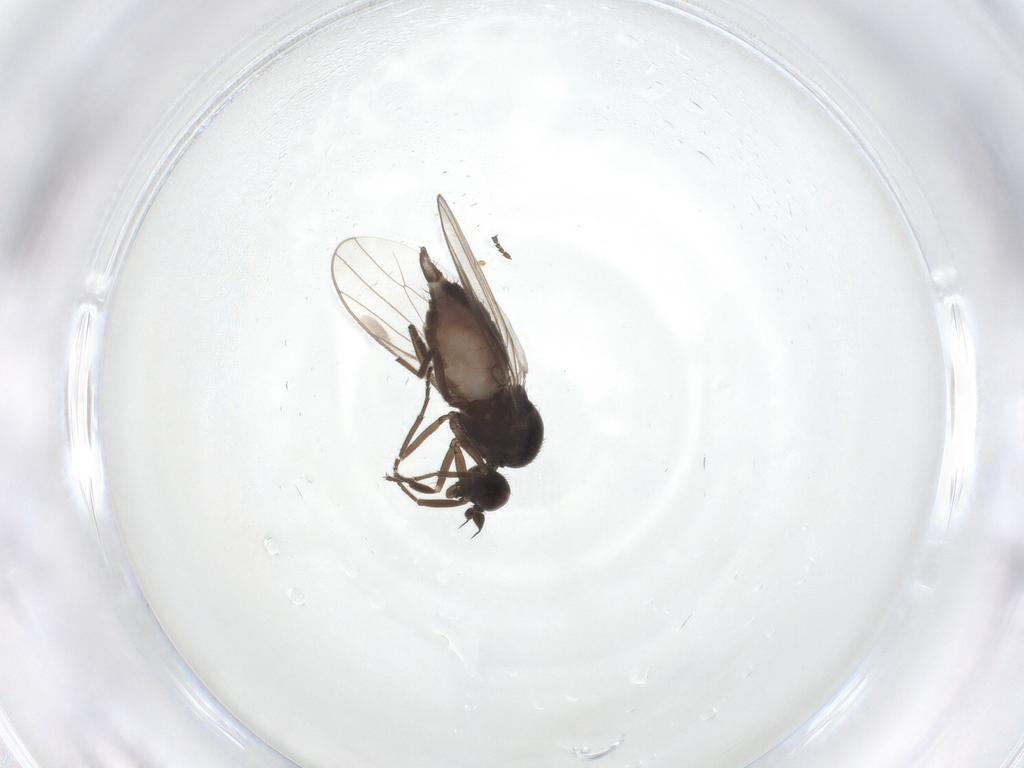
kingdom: Animalia
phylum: Arthropoda
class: Insecta
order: Diptera
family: Hybotidae
